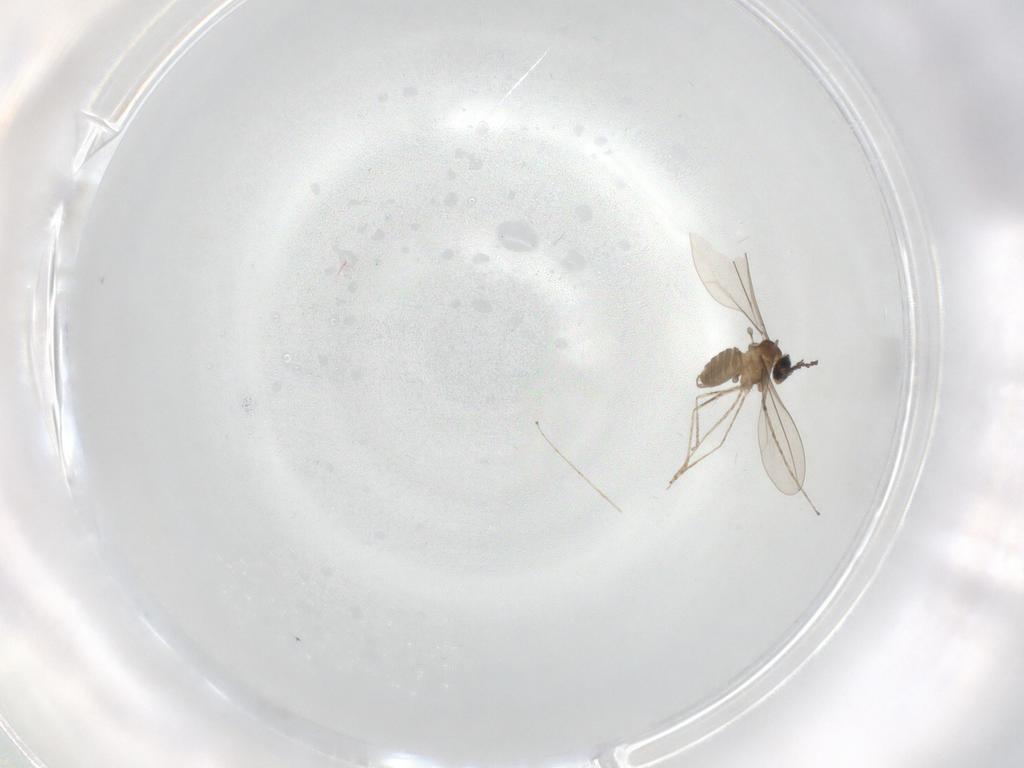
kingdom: Animalia
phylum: Arthropoda
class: Insecta
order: Diptera
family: Cecidomyiidae
